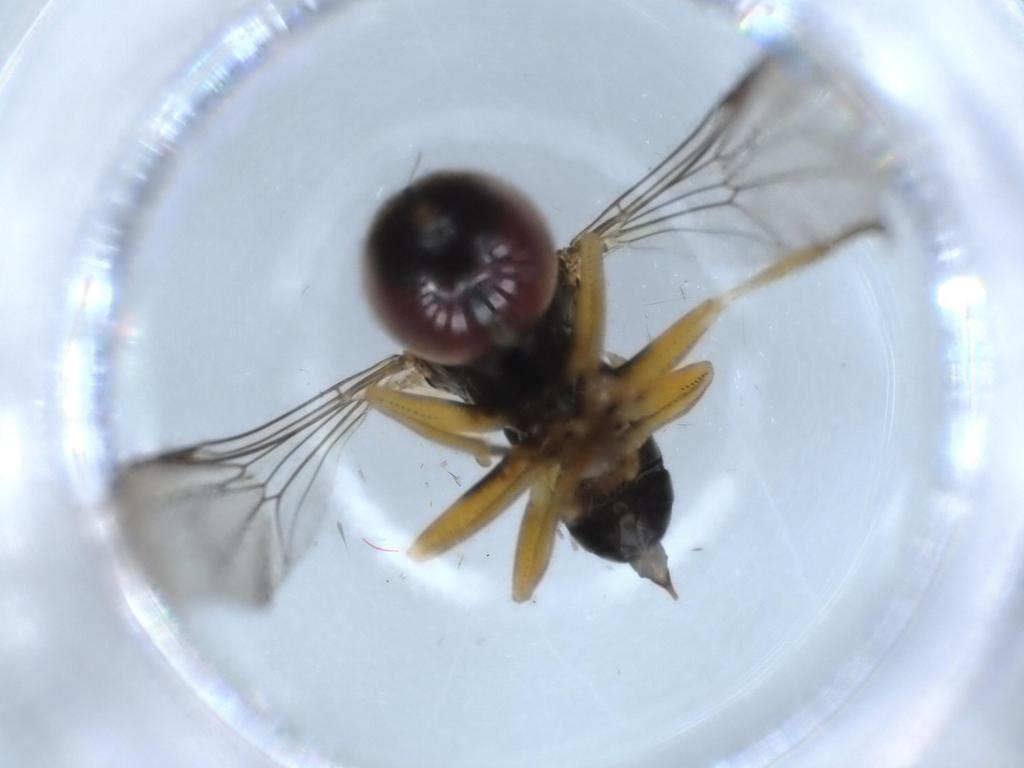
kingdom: Animalia
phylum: Arthropoda
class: Insecta
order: Diptera
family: Cecidomyiidae
